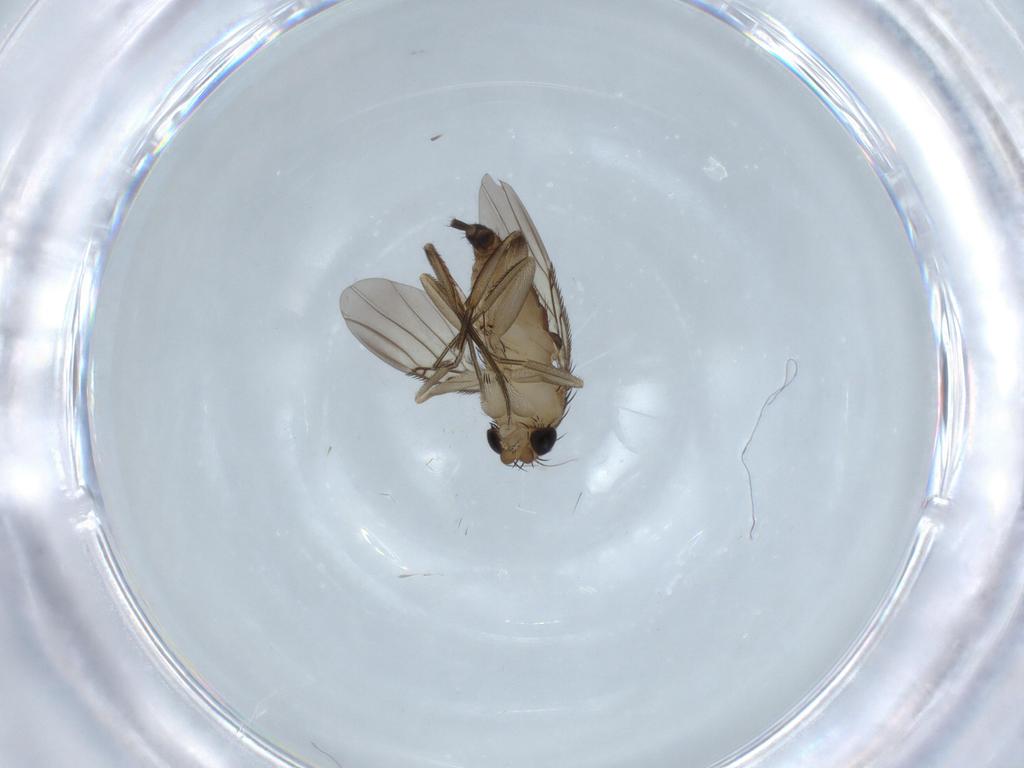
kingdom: Animalia
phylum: Arthropoda
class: Insecta
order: Diptera
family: Phoridae
